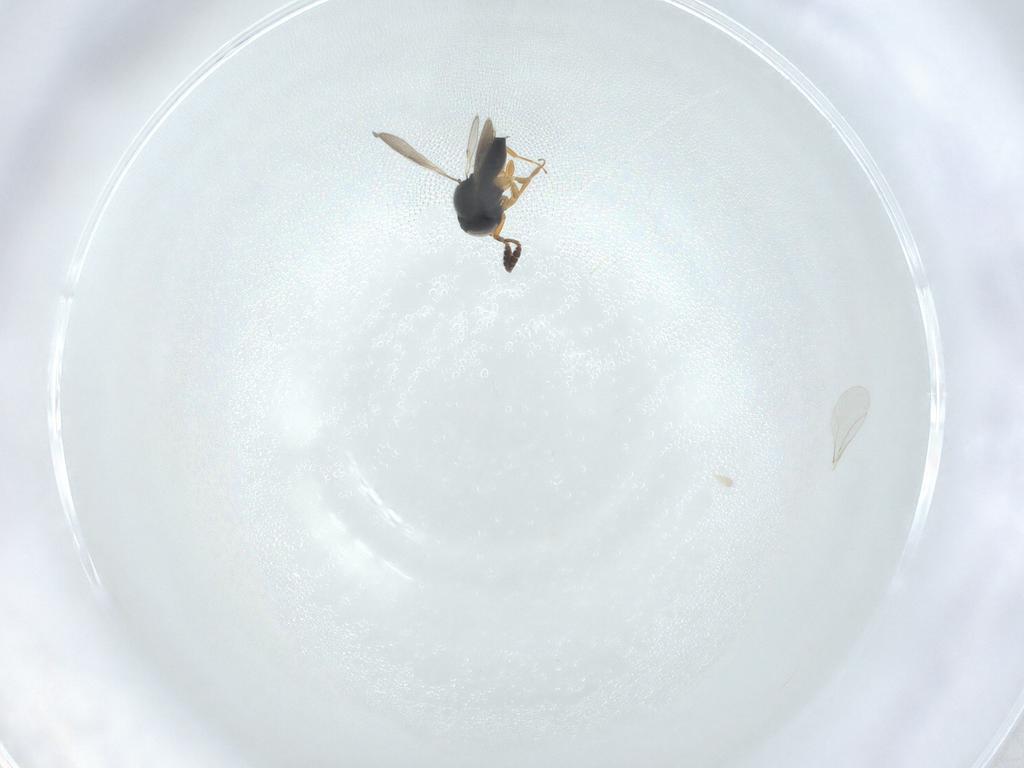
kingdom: Animalia
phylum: Arthropoda
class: Insecta
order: Hymenoptera
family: Scelionidae
